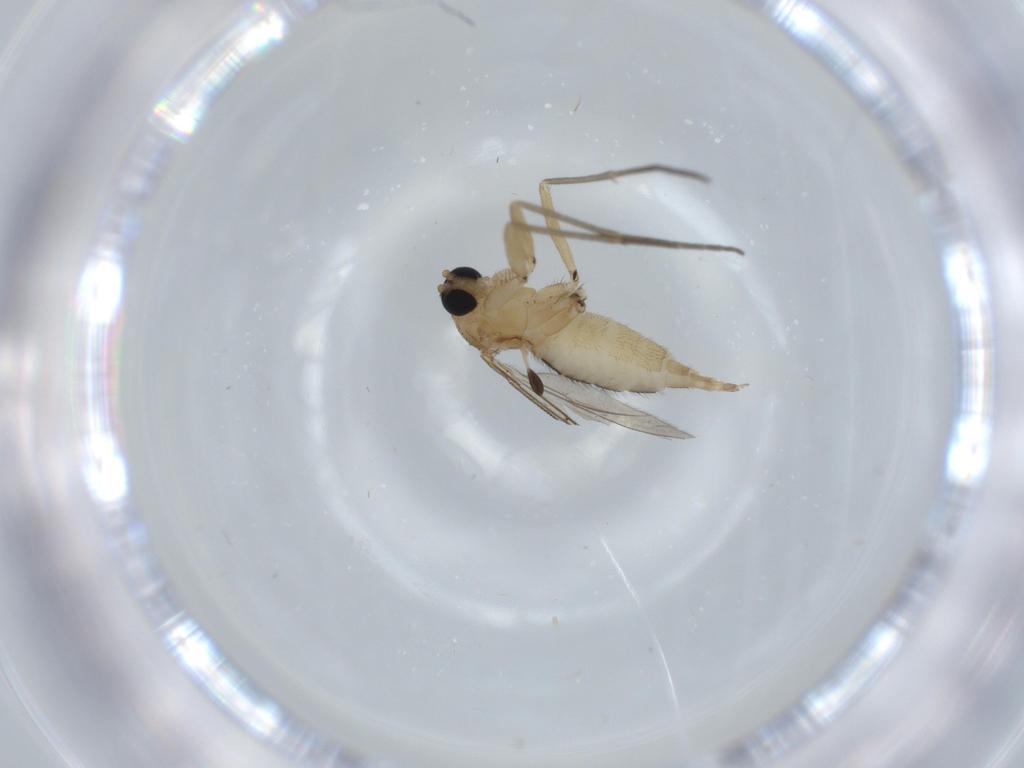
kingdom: Animalia
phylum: Arthropoda
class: Insecta
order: Diptera
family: Sciaridae
